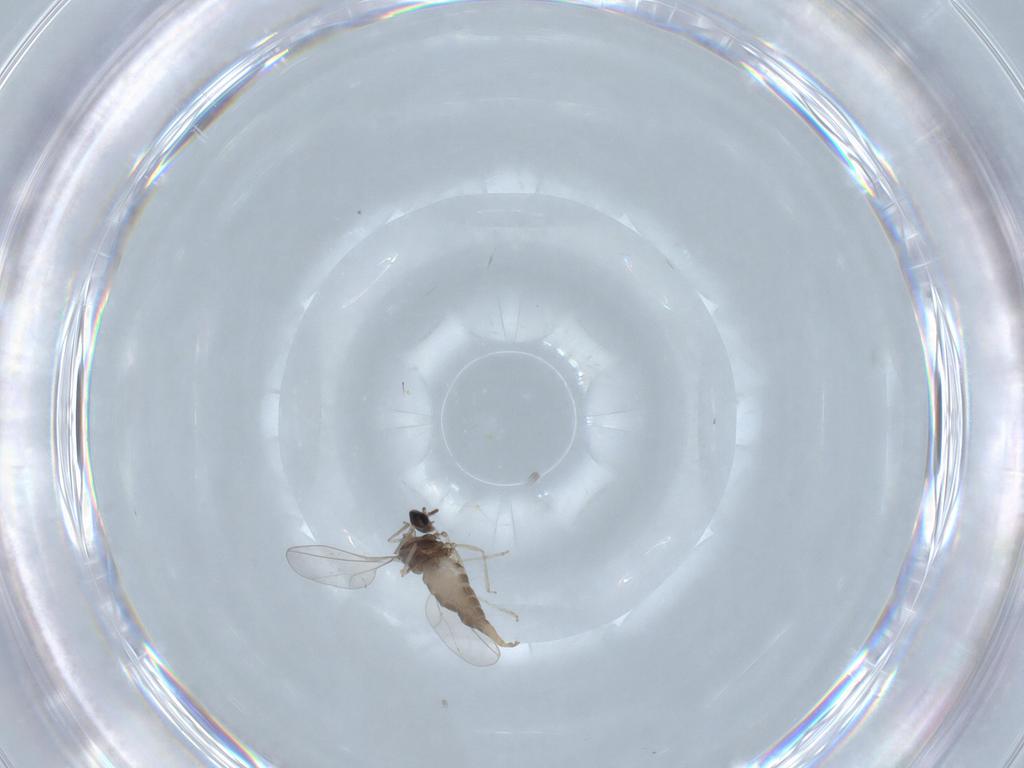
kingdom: Animalia
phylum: Arthropoda
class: Insecta
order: Diptera
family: Cecidomyiidae
